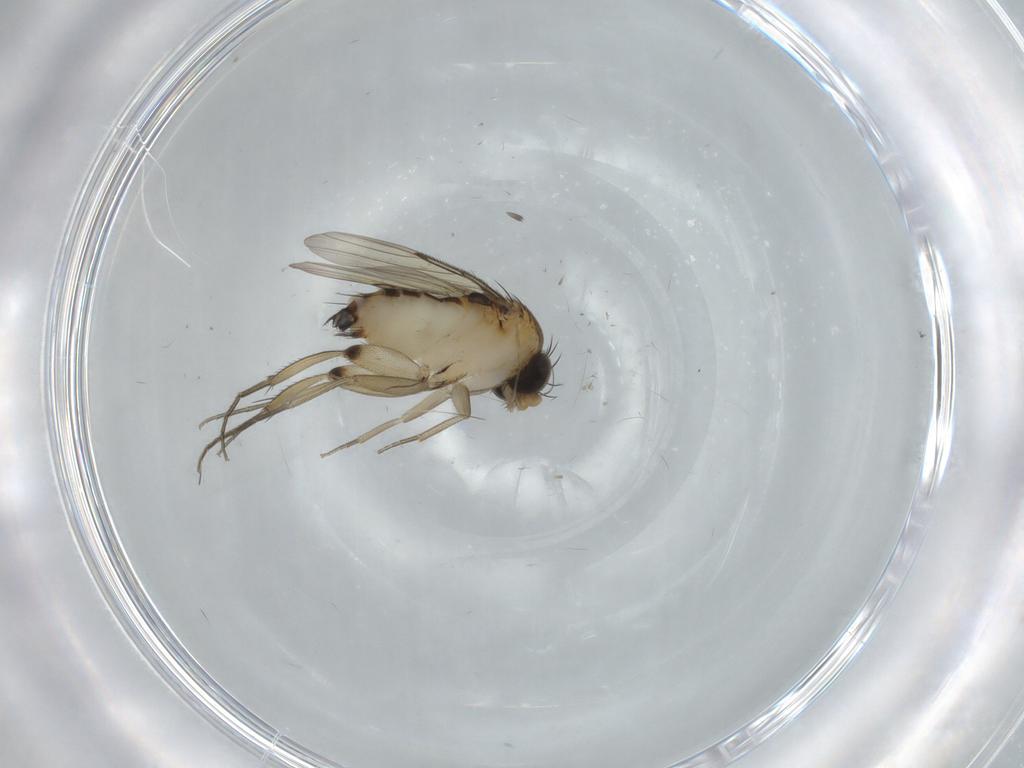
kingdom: Animalia
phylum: Arthropoda
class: Insecta
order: Diptera
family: Phoridae
